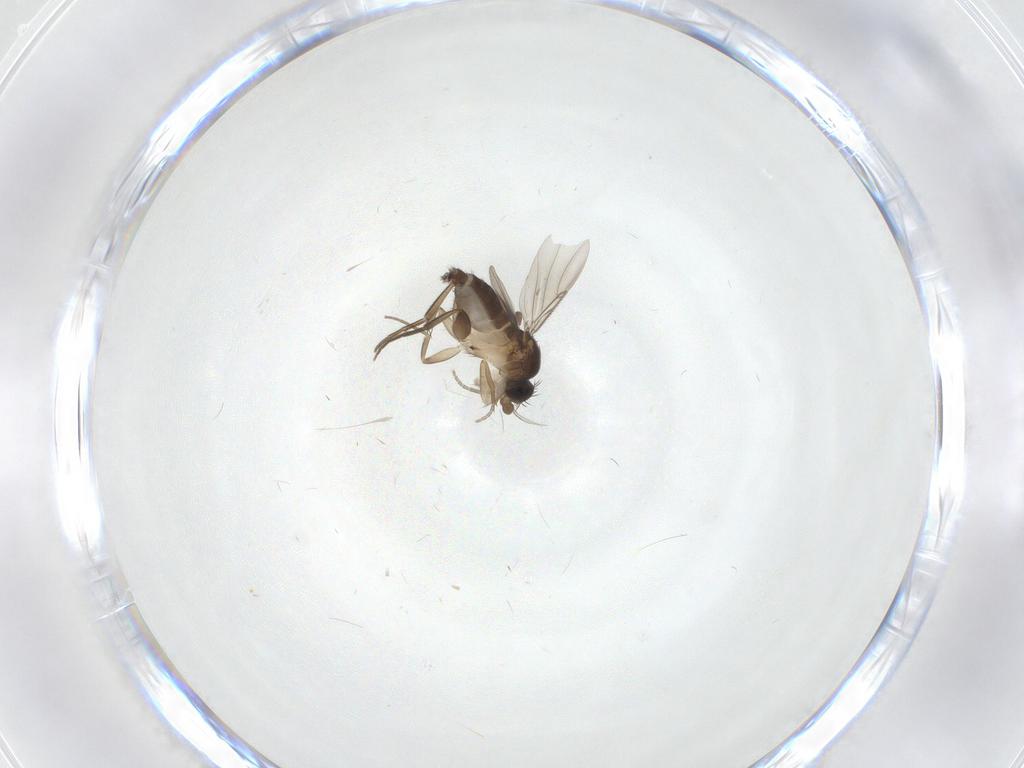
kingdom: Animalia
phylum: Arthropoda
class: Insecta
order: Diptera
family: Phoridae
